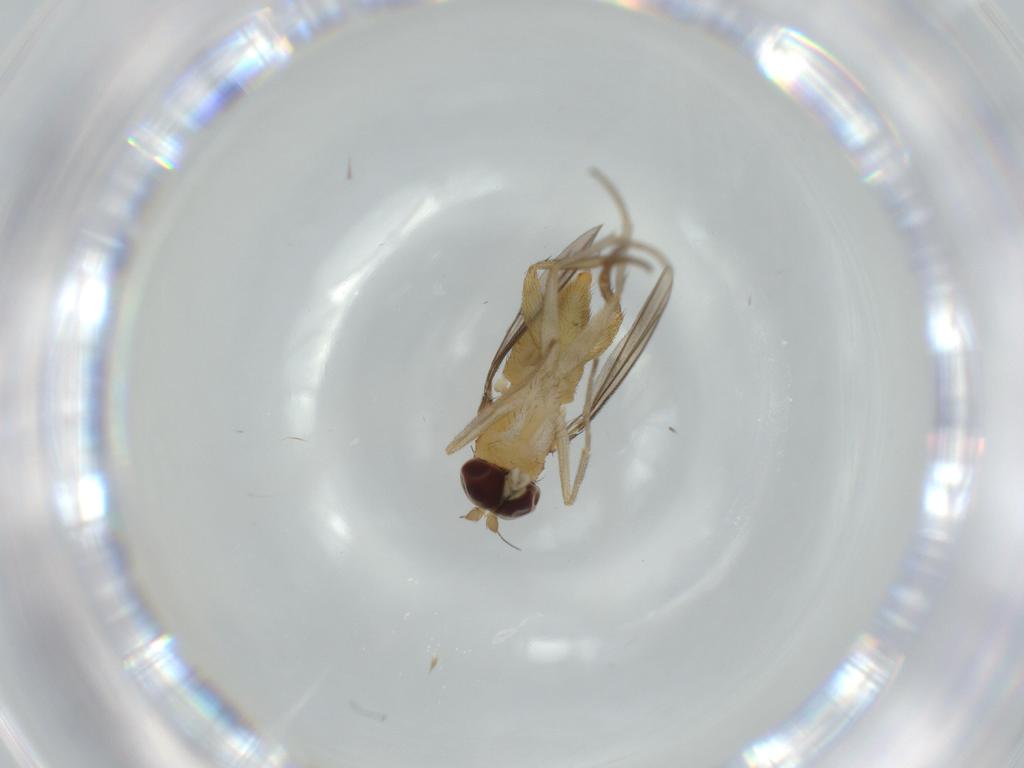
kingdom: Animalia
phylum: Arthropoda
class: Insecta
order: Diptera
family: Dolichopodidae
